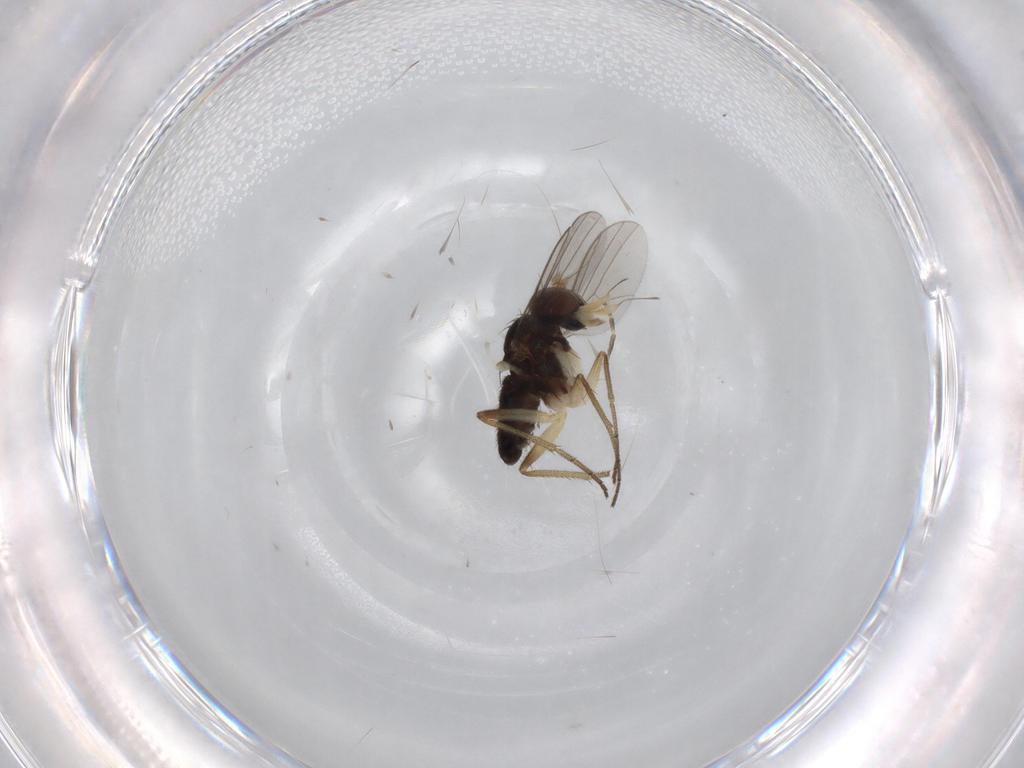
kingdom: Animalia
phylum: Arthropoda
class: Insecta
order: Diptera
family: Dolichopodidae
